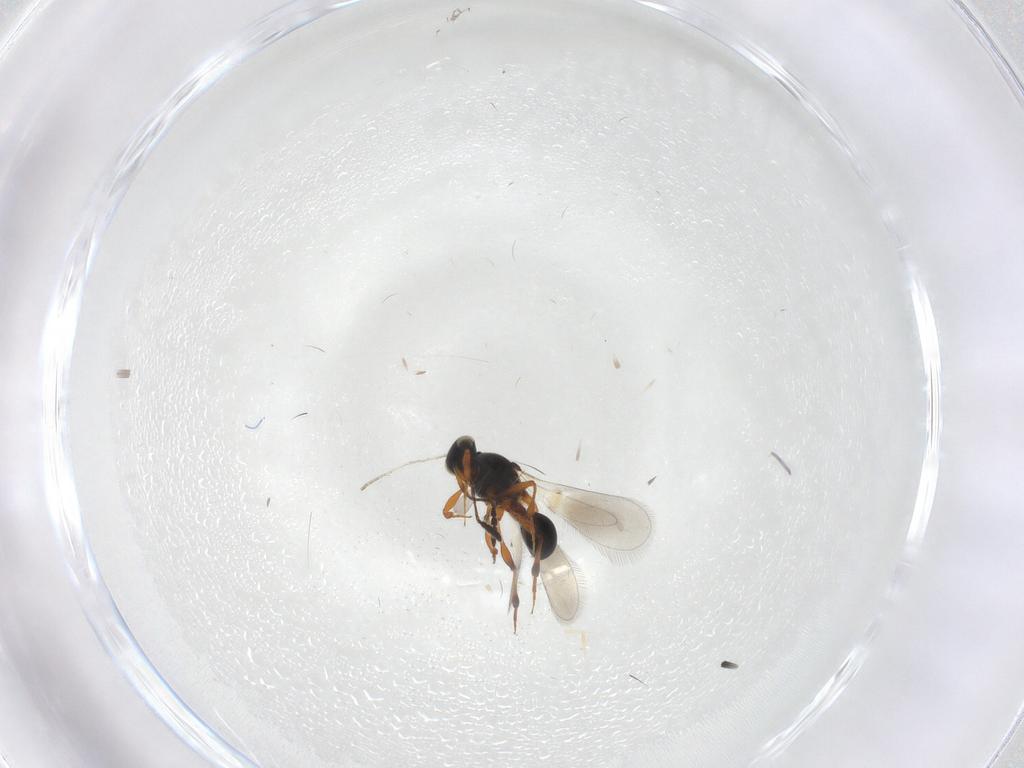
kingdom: Animalia
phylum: Arthropoda
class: Insecta
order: Hymenoptera
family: Platygastridae
